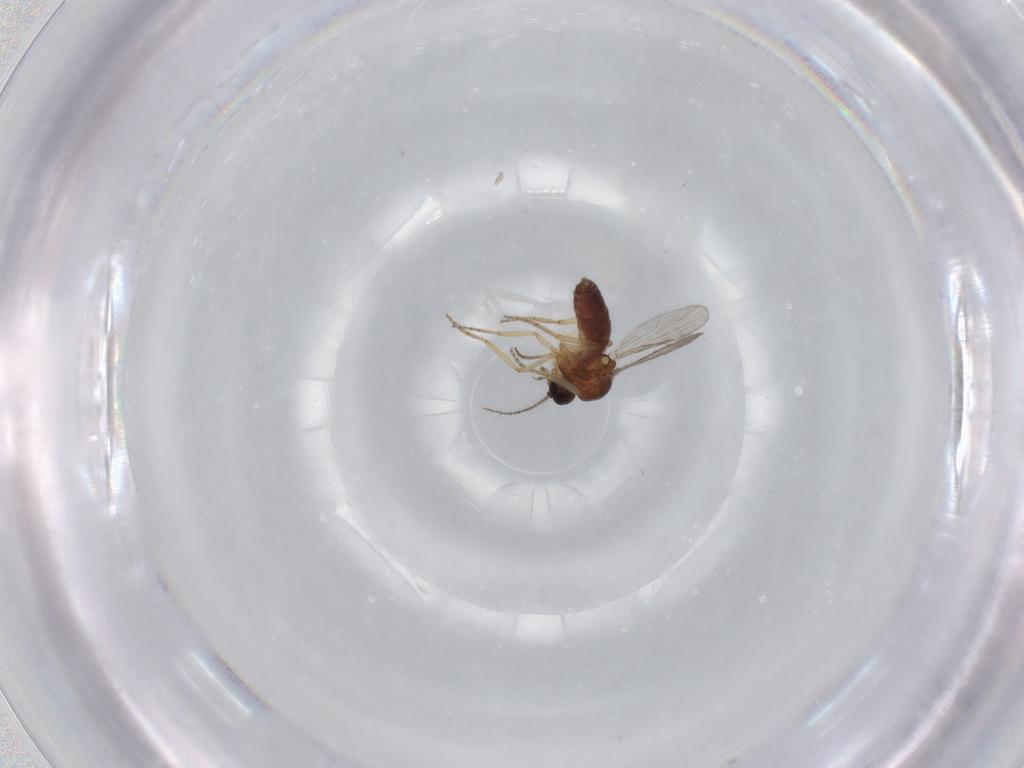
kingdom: Animalia
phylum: Arthropoda
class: Insecta
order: Diptera
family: Ceratopogonidae
